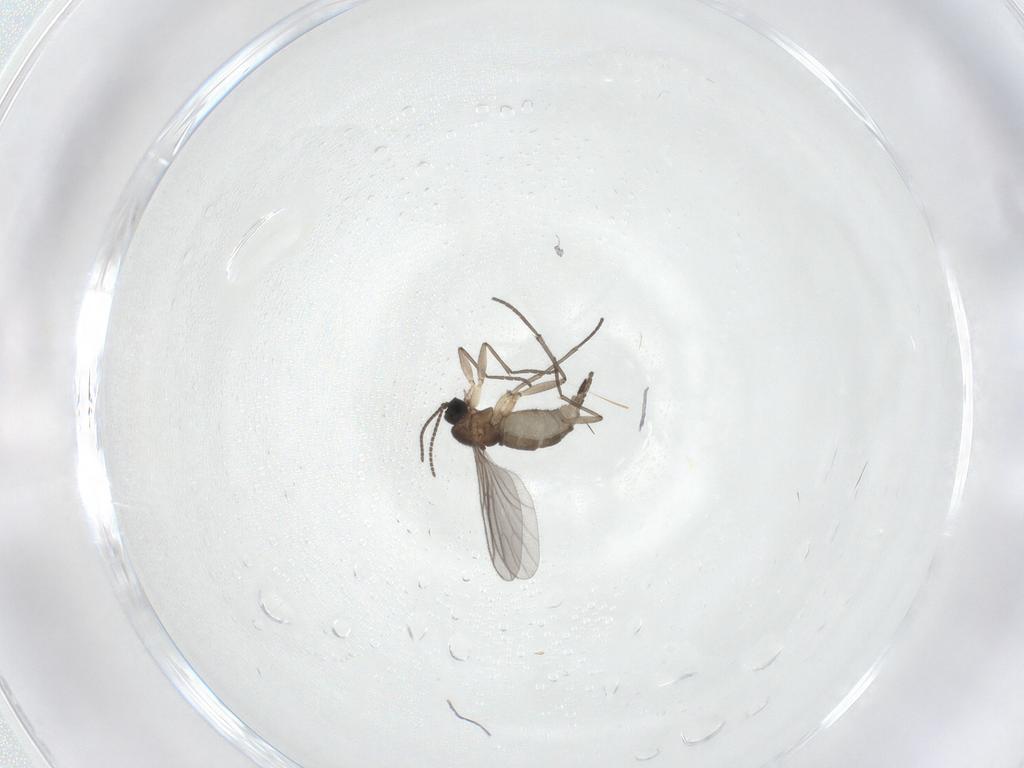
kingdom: Animalia
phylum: Arthropoda
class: Insecta
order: Diptera
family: Sciaridae
